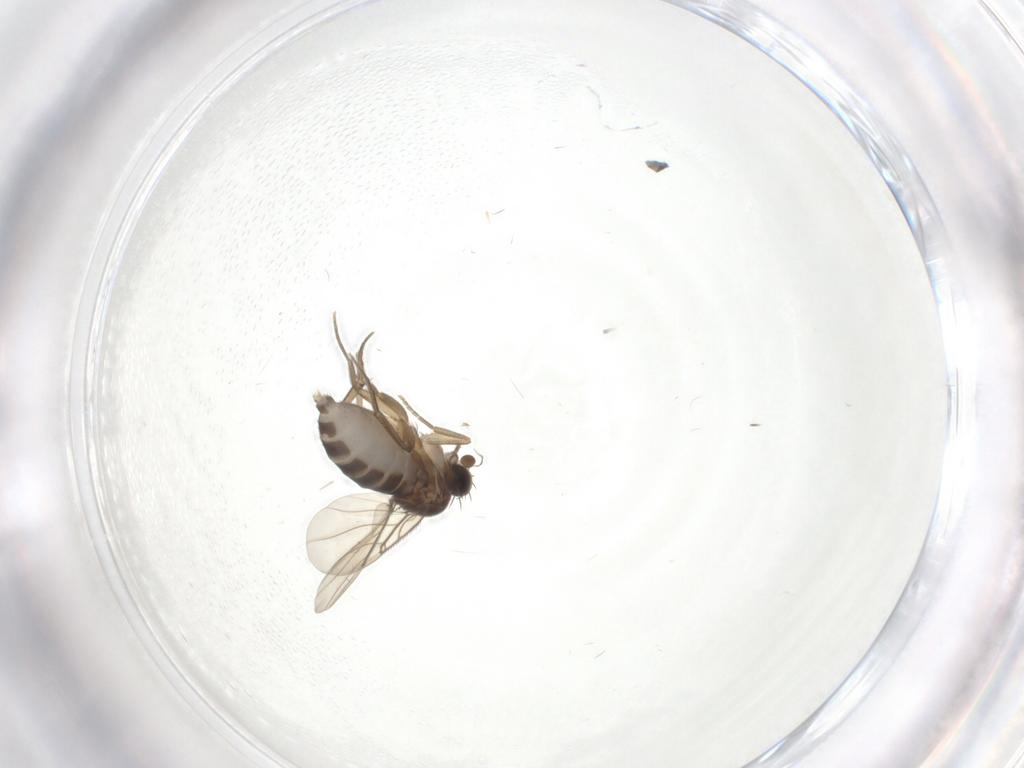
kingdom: Animalia
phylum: Arthropoda
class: Insecta
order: Diptera
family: Phoridae
